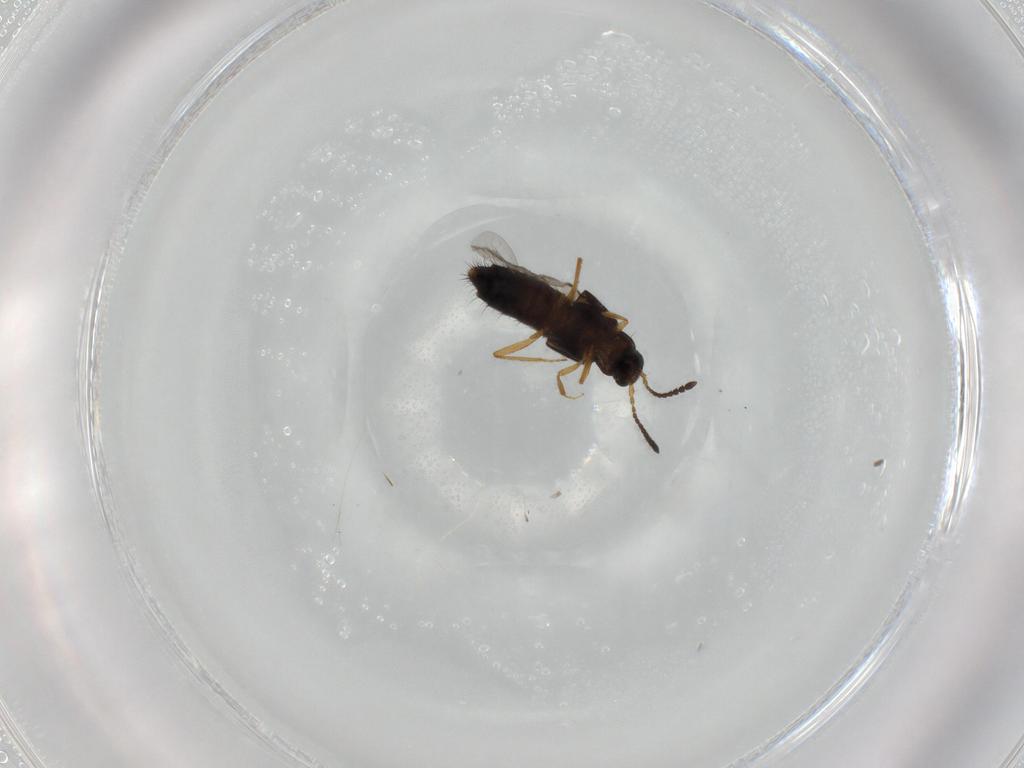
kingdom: Animalia
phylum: Arthropoda
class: Insecta
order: Coleoptera
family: Staphylinidae
